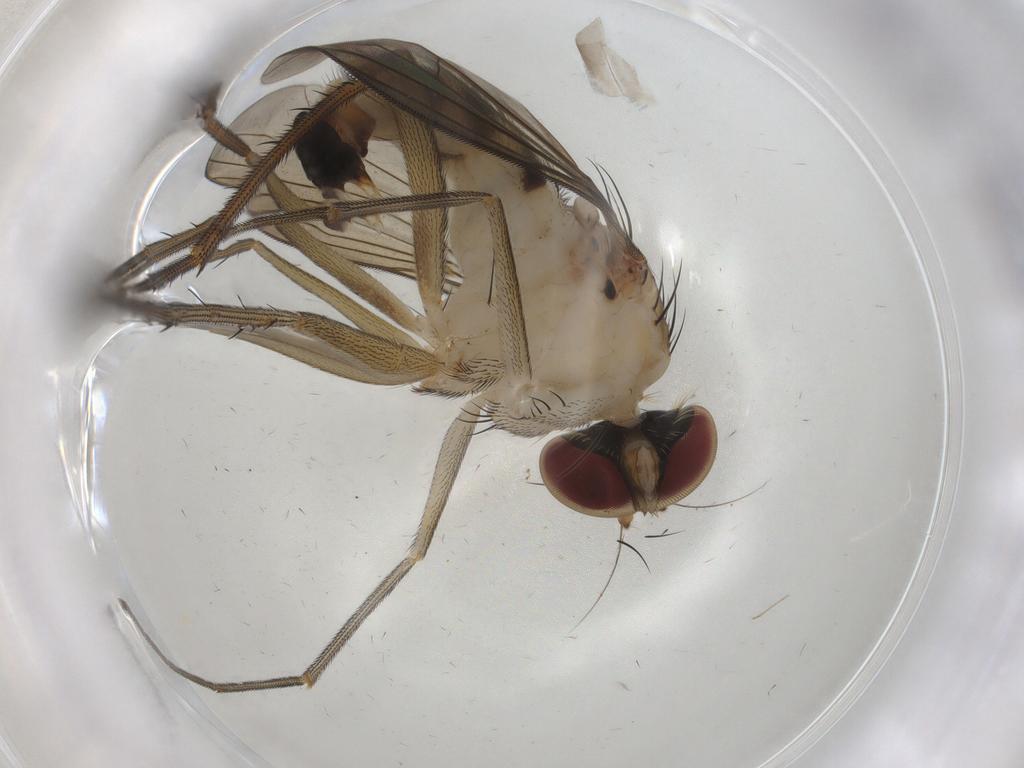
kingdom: Animalia
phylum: Arthropoda
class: Insecta
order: Diptera
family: Dolichopodidae
